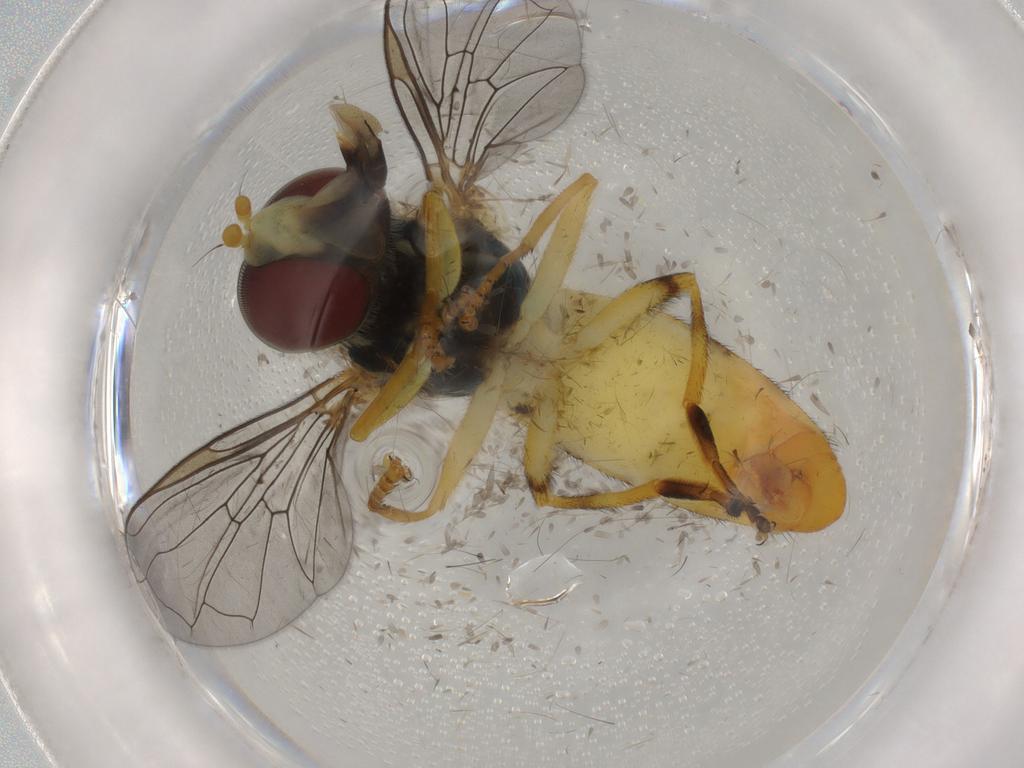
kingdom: Animalia
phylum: Arthropoda
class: Insecta
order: Diptera
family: Syrphidae
